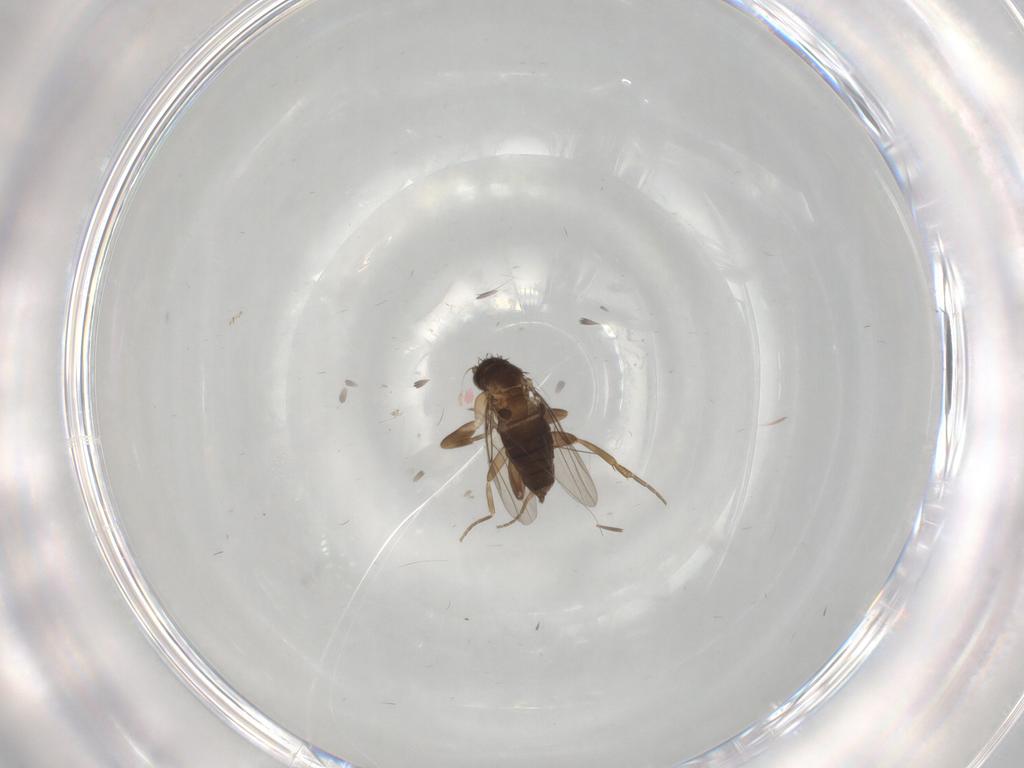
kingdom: Animalia
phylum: Arthropoda
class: Insecta
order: Diptera
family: Phoridae
